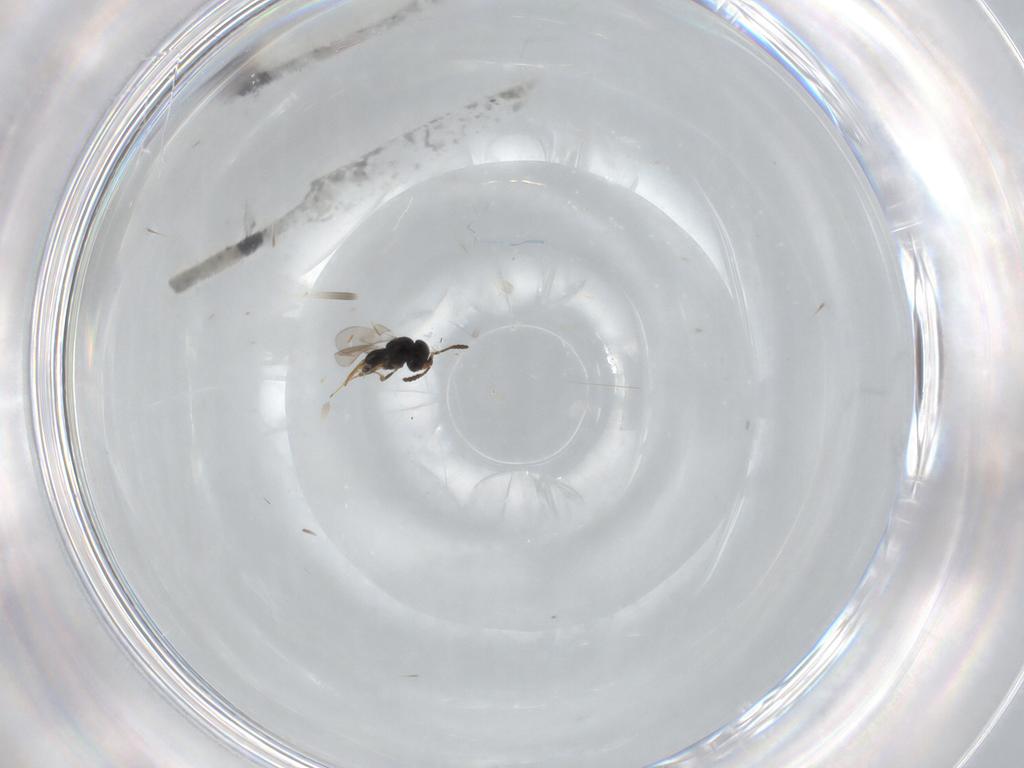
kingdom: Animalia
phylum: Arthropoda
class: Insecta
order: Hymenoptera
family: Scelionidae
